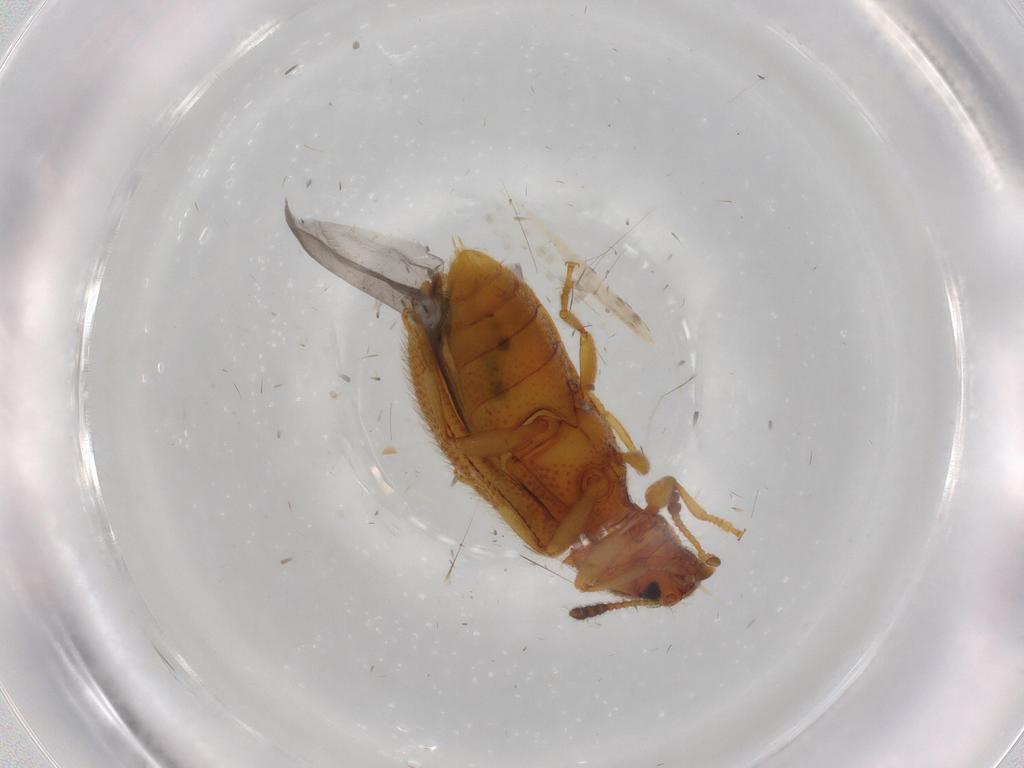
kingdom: Animalia
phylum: Arthropoda
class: Insecta
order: Coleoptera
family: Tenebrionidae
